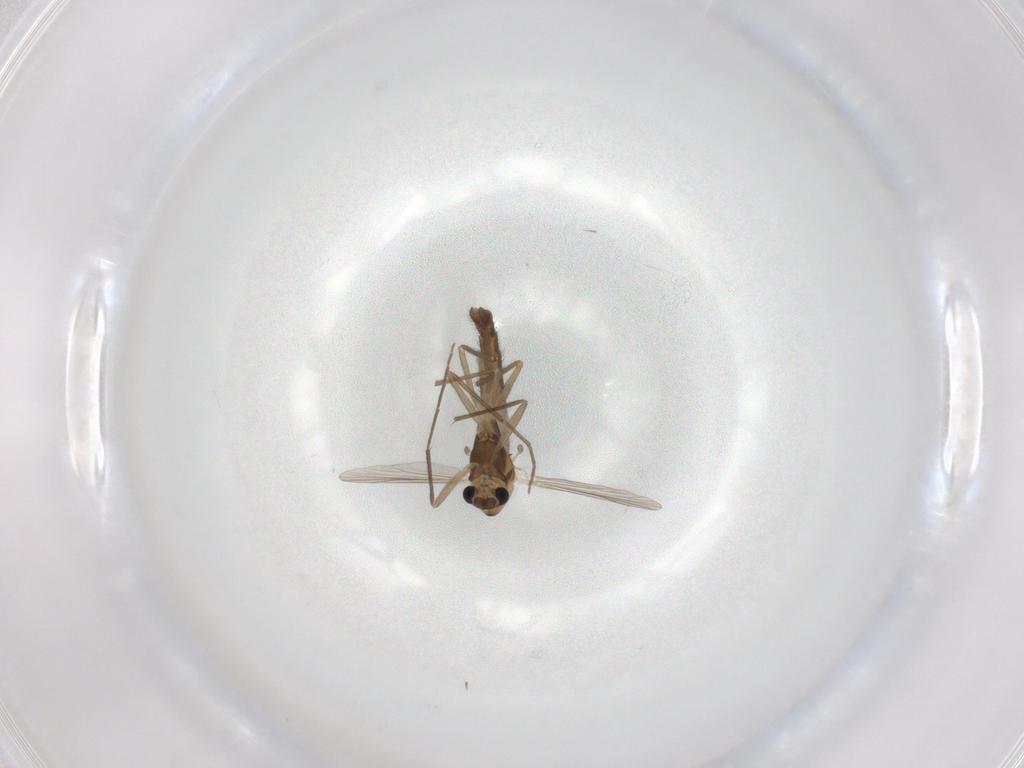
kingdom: Animalia
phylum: Arthropoda
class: Insecta
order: Diptera
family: Chironomidae
